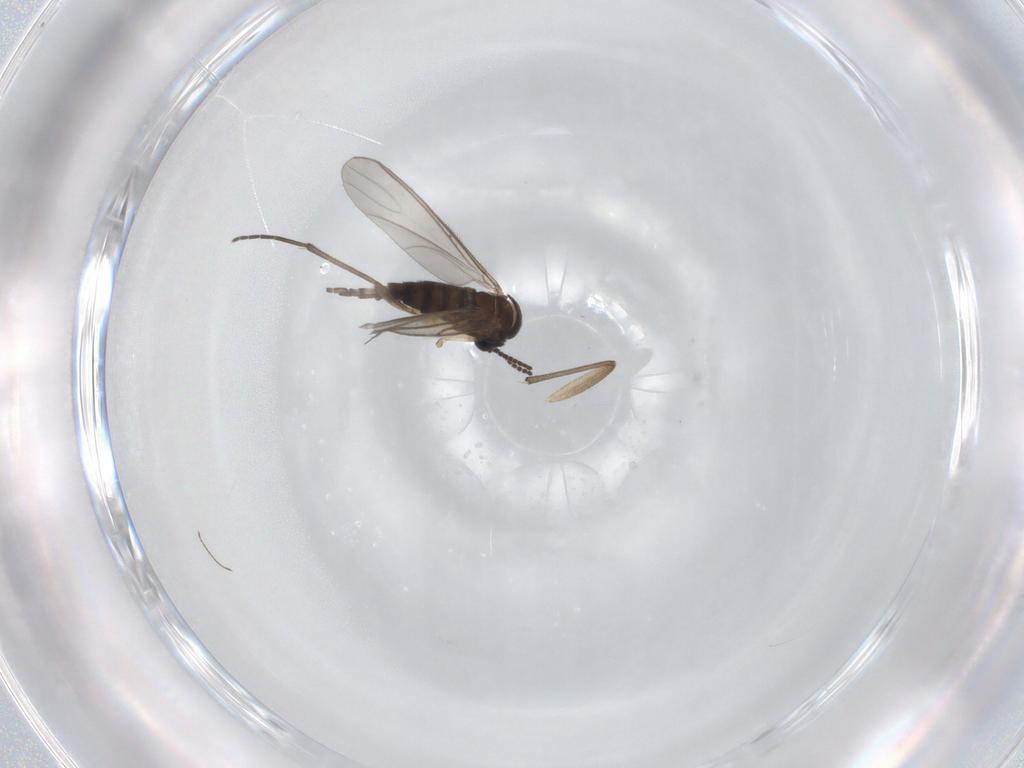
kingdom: Animalia
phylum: Arthropoda
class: Insecta
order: Diptera
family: Chironomidae
